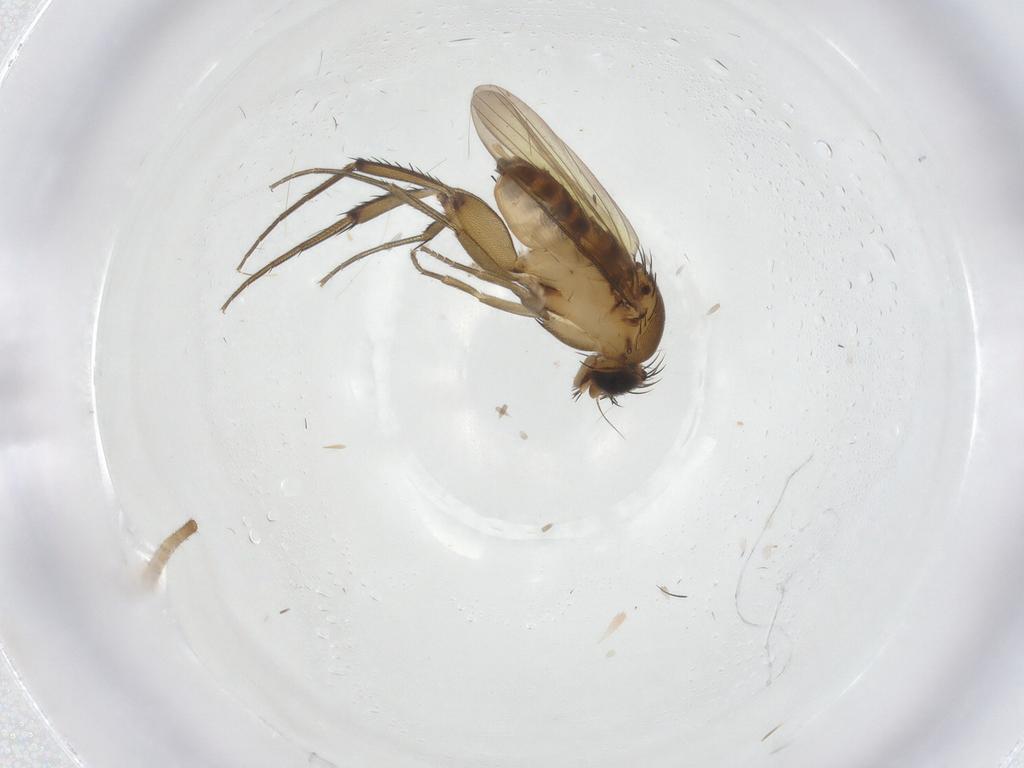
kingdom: Animalia
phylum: Arthropoda
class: Insecta
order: Diptera
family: Phoridae
